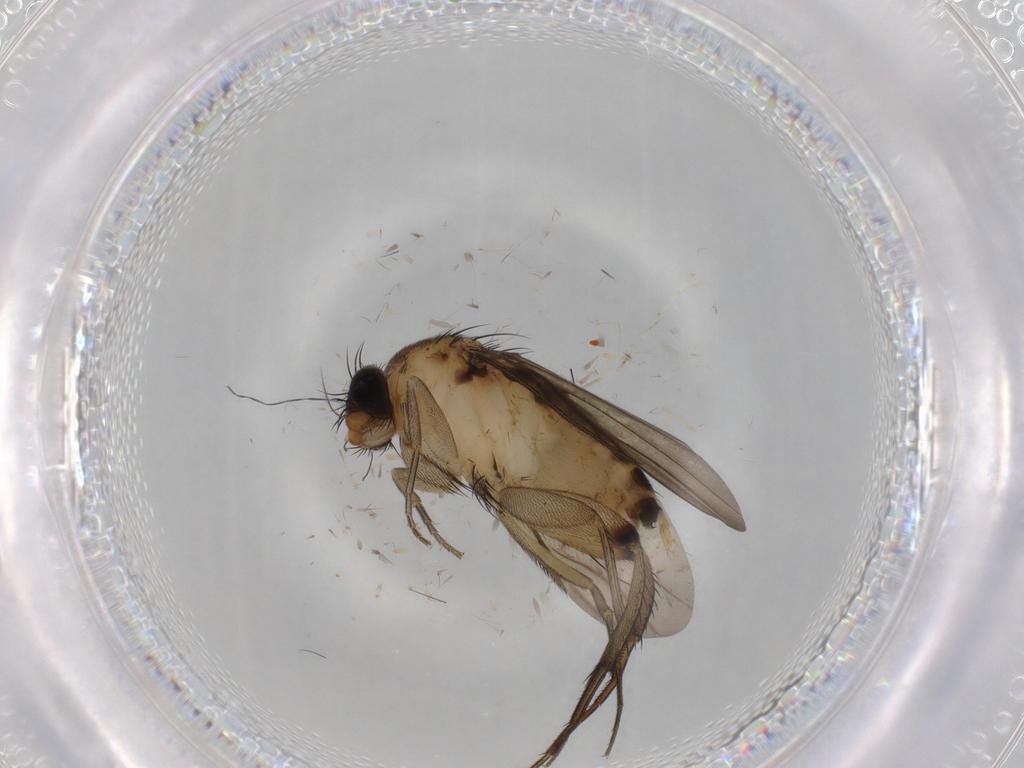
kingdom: Animalia
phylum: Arthropoda
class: Insecta
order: Diptera
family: Phoridae
